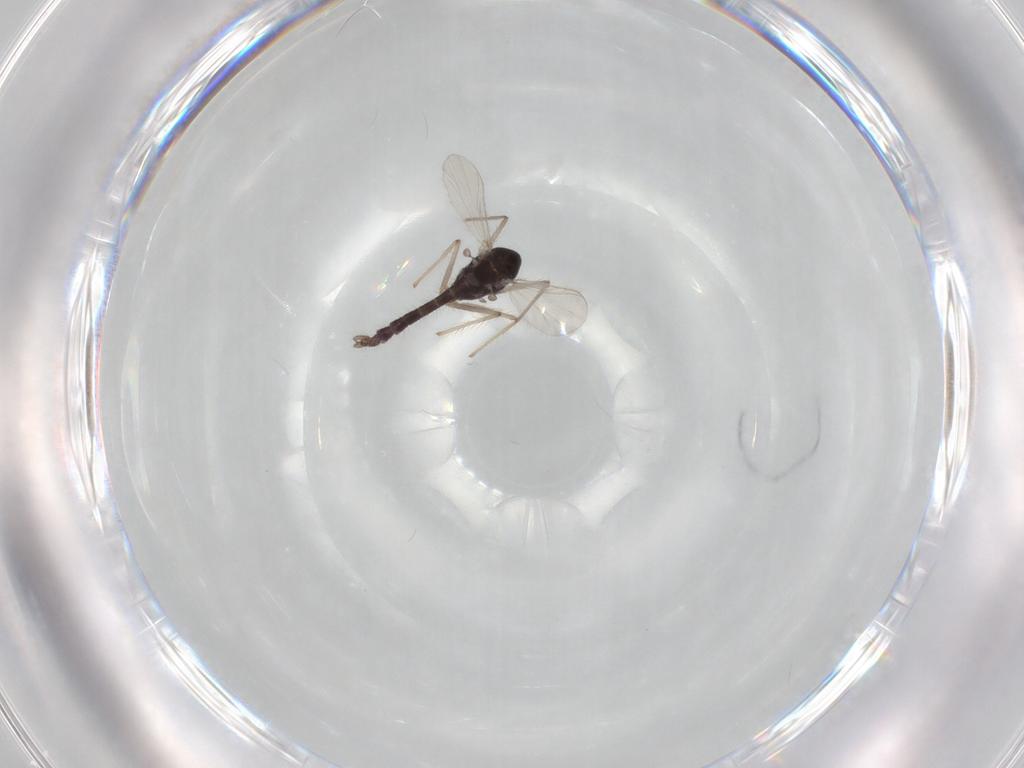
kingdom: Animalia
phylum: Arthropoda
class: Insecta
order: Diptera
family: Chironomidae
